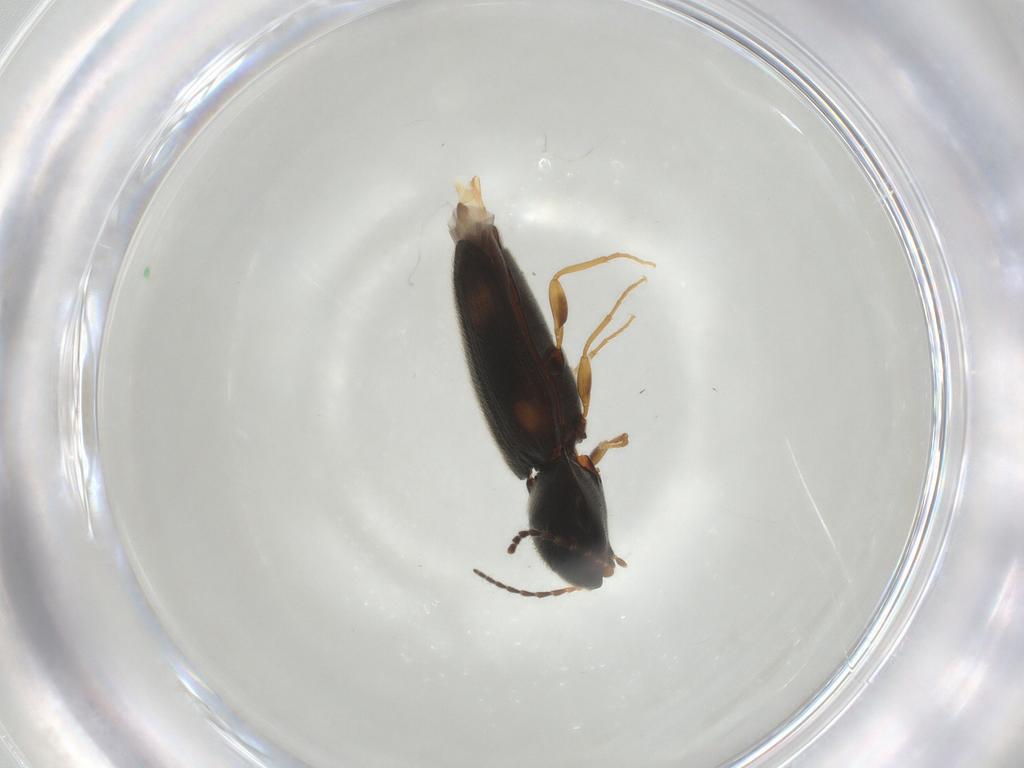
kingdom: Animalia
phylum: Arthropoda
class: Insecta
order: Coleoptera
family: Elateridae
